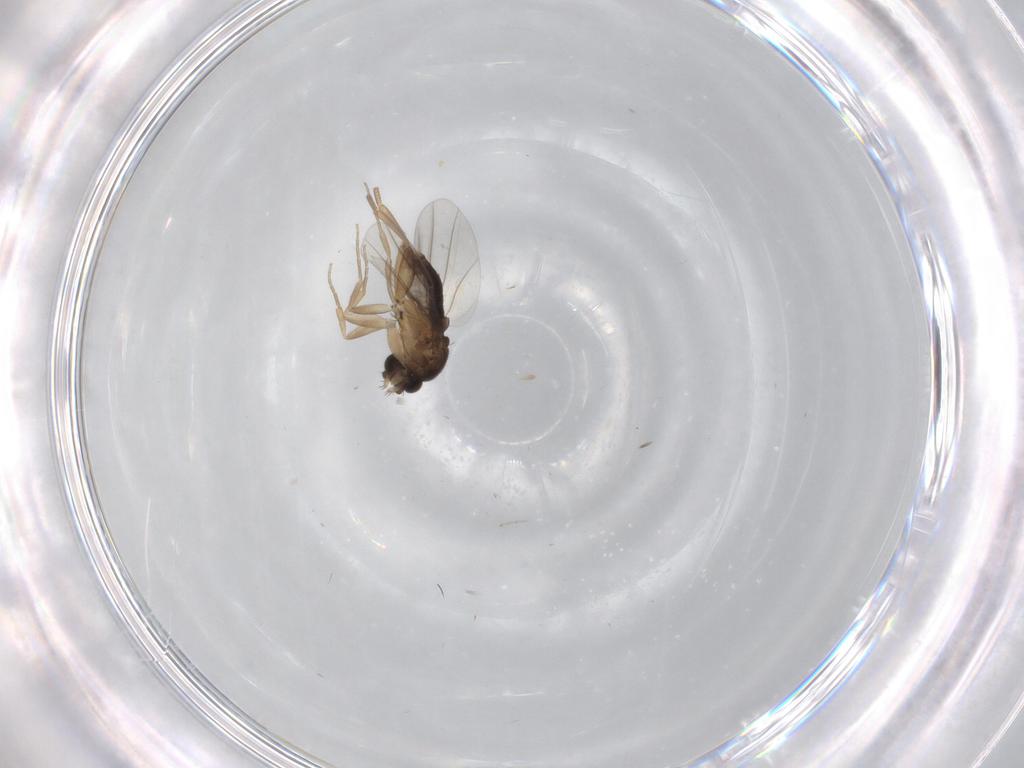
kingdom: Animalia
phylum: Arthropoda
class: Insecta
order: Diptera
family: Phoridae
